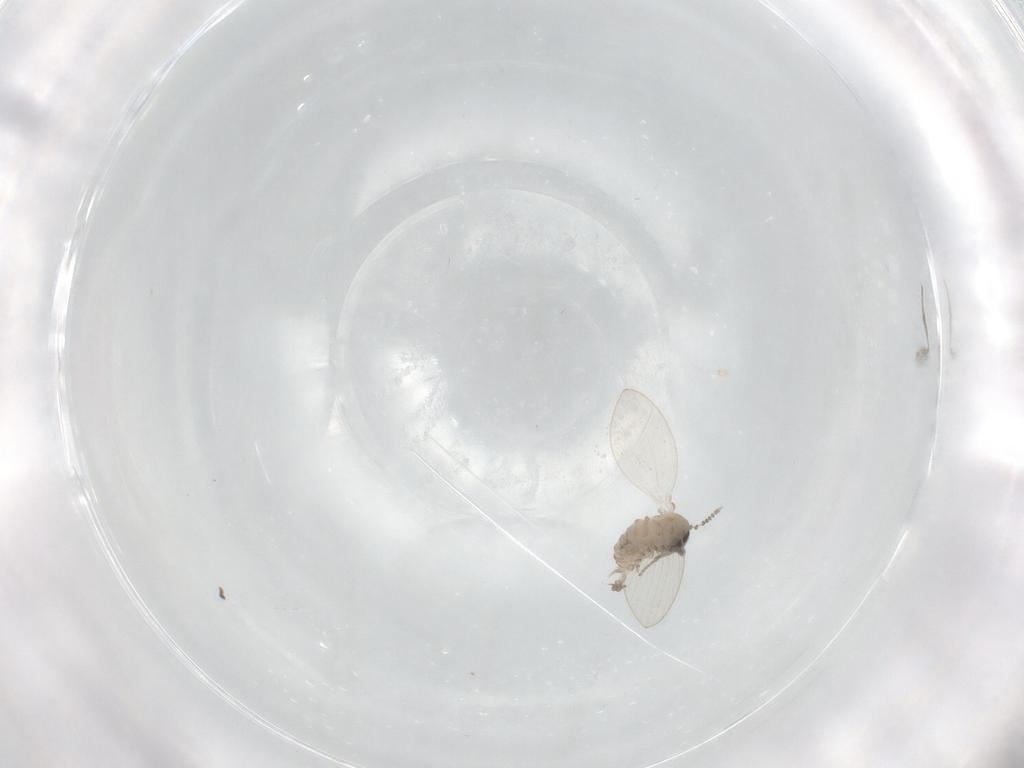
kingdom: Animalia
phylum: Arthropoda
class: Insecta
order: Diptera
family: Psychodidae
